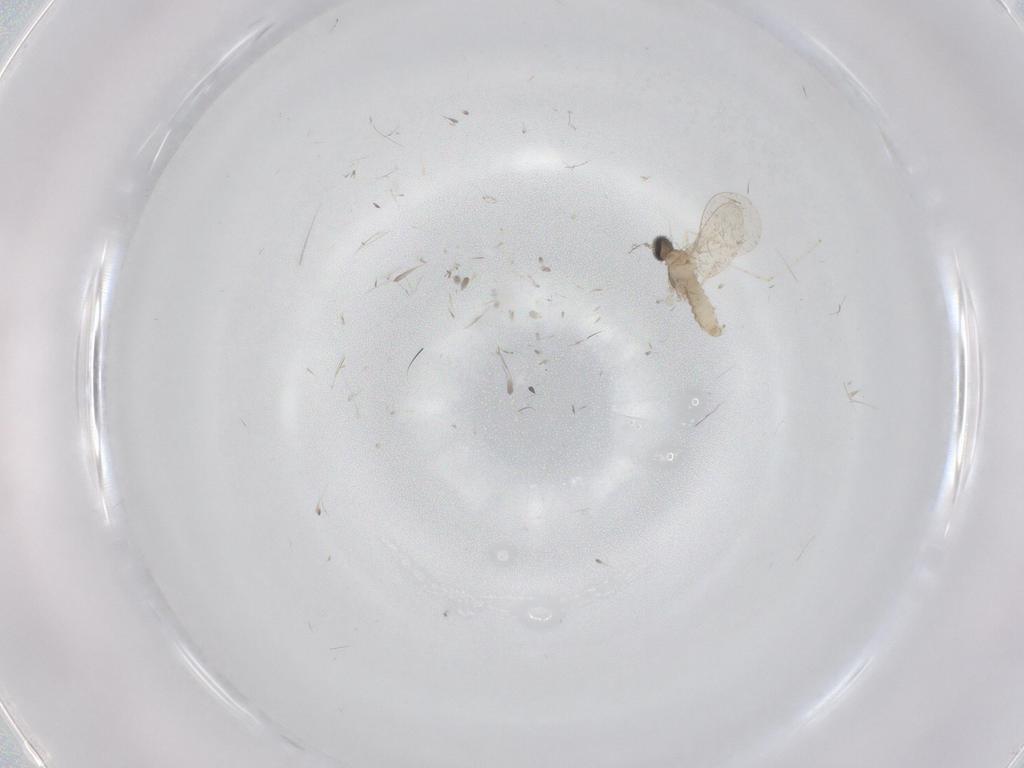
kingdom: Animalia
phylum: Arthropoda
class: Insecta
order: Diptera
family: Cecidomyiidae
